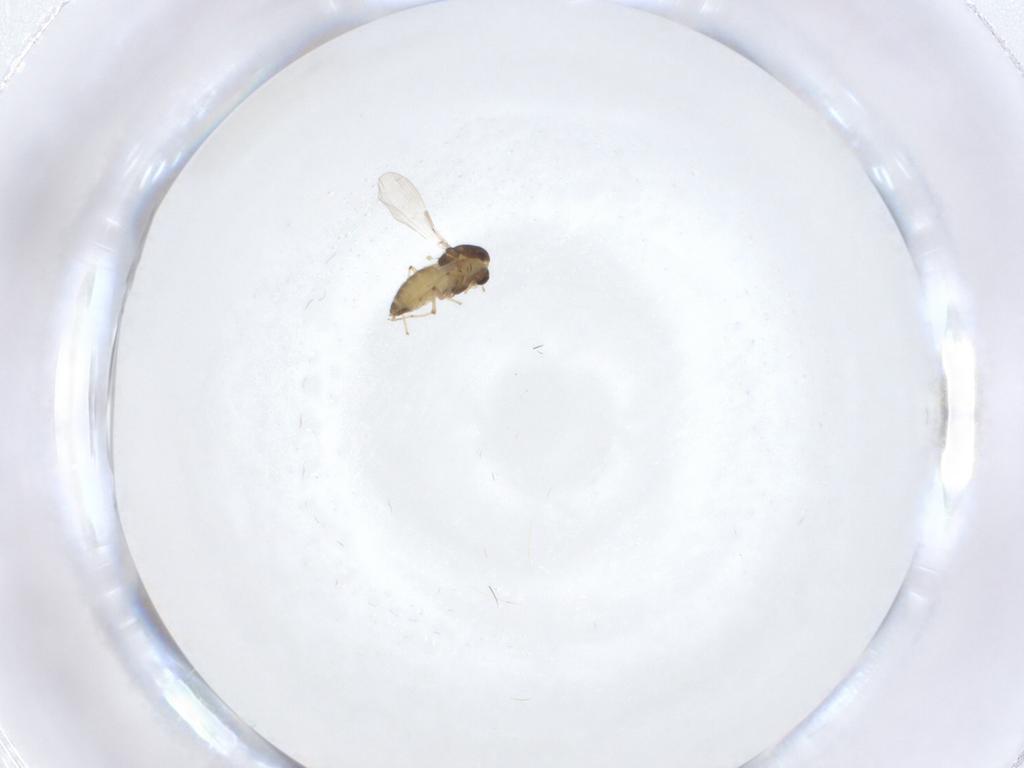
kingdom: Animalia
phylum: Arthropoda
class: Insecta
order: Diptera
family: Chironomidae
